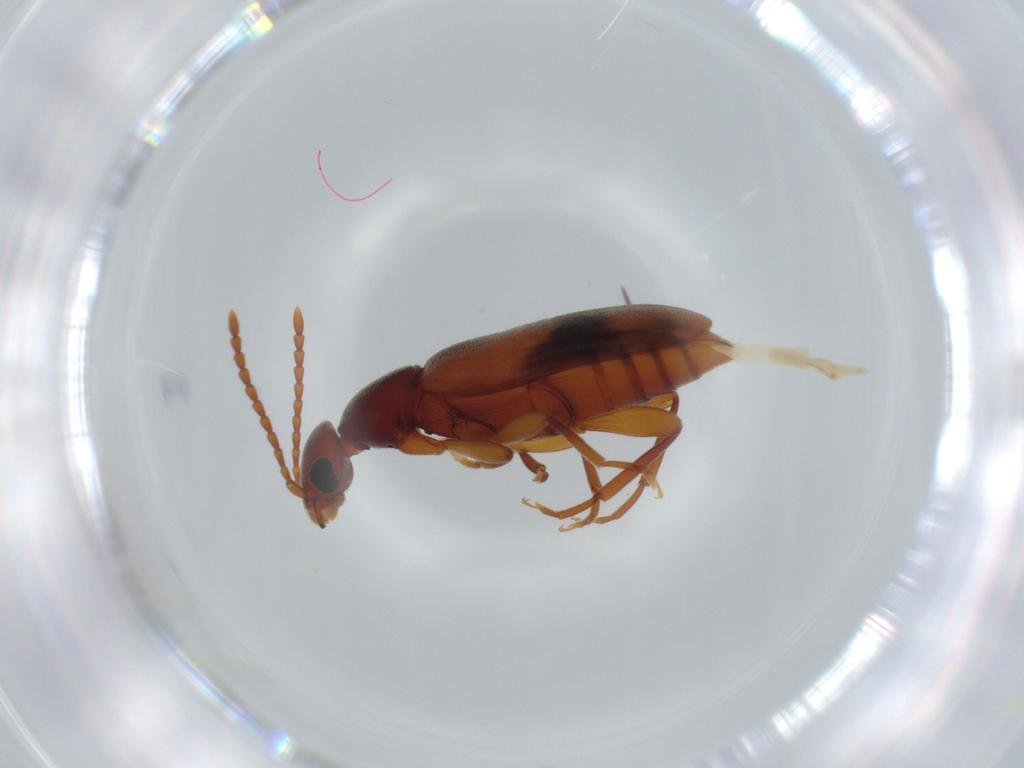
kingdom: Animalia
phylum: Arthropoda
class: Insecta
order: Coleoptera
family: Anthicidae
